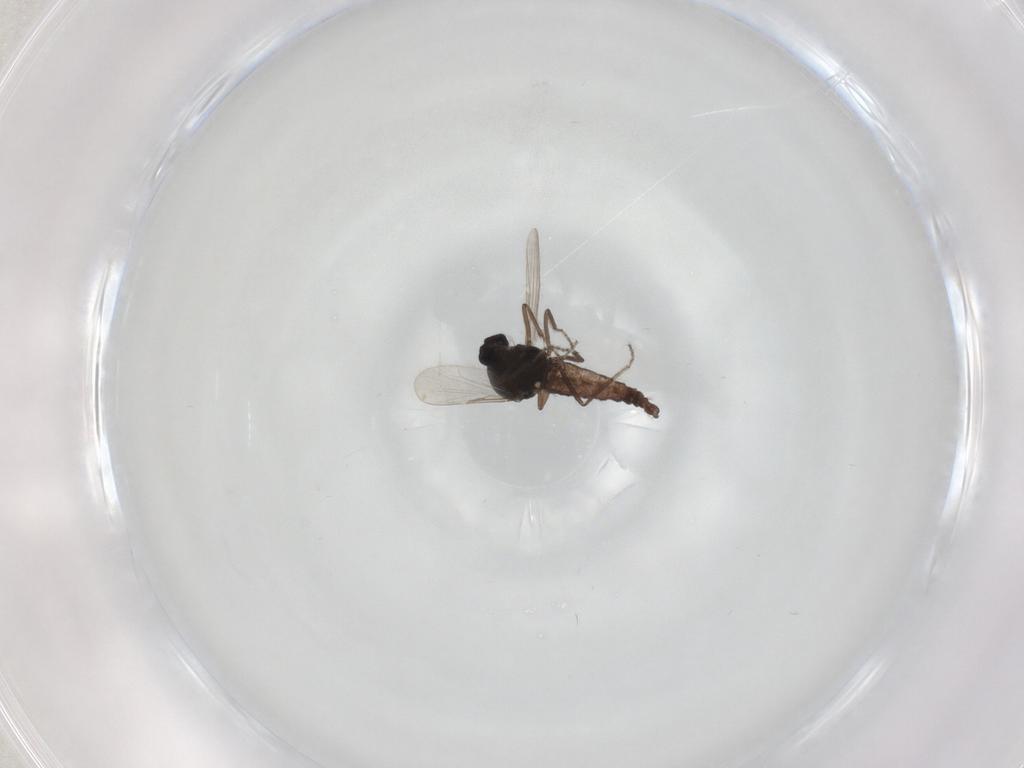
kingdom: Animalia
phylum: Arthropoda
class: Insecta
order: Diptera
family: Ceratopogonidae
